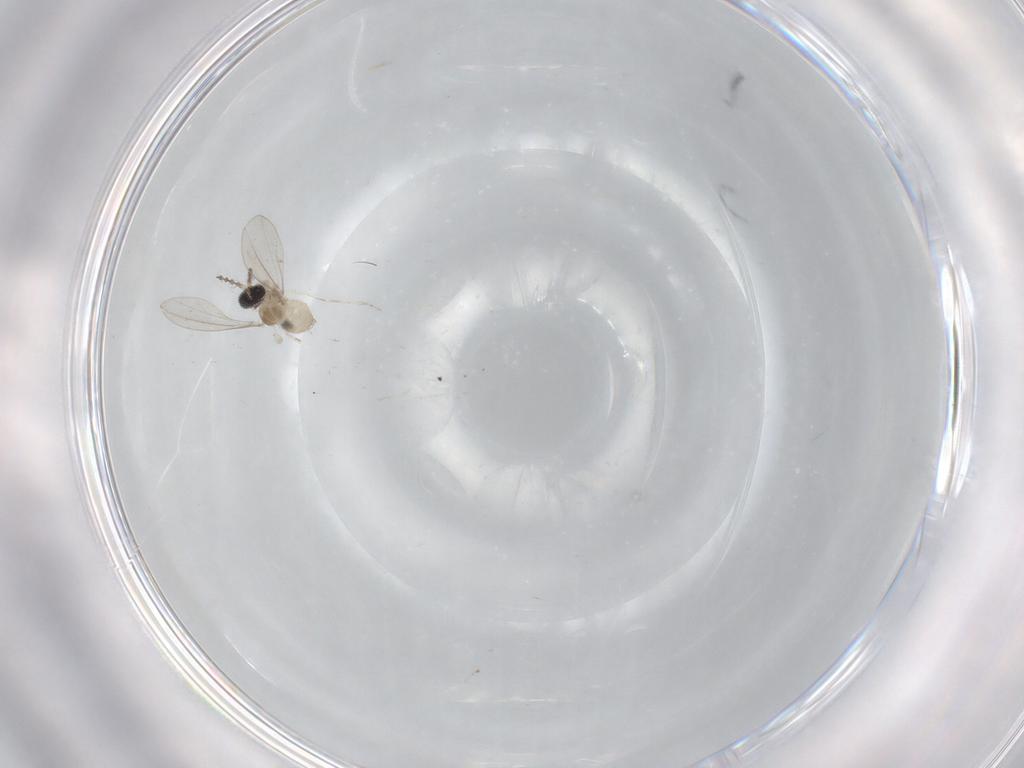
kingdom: Animalia
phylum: Arthropoda
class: Insecta
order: Diptera
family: Cecidomyiidae
